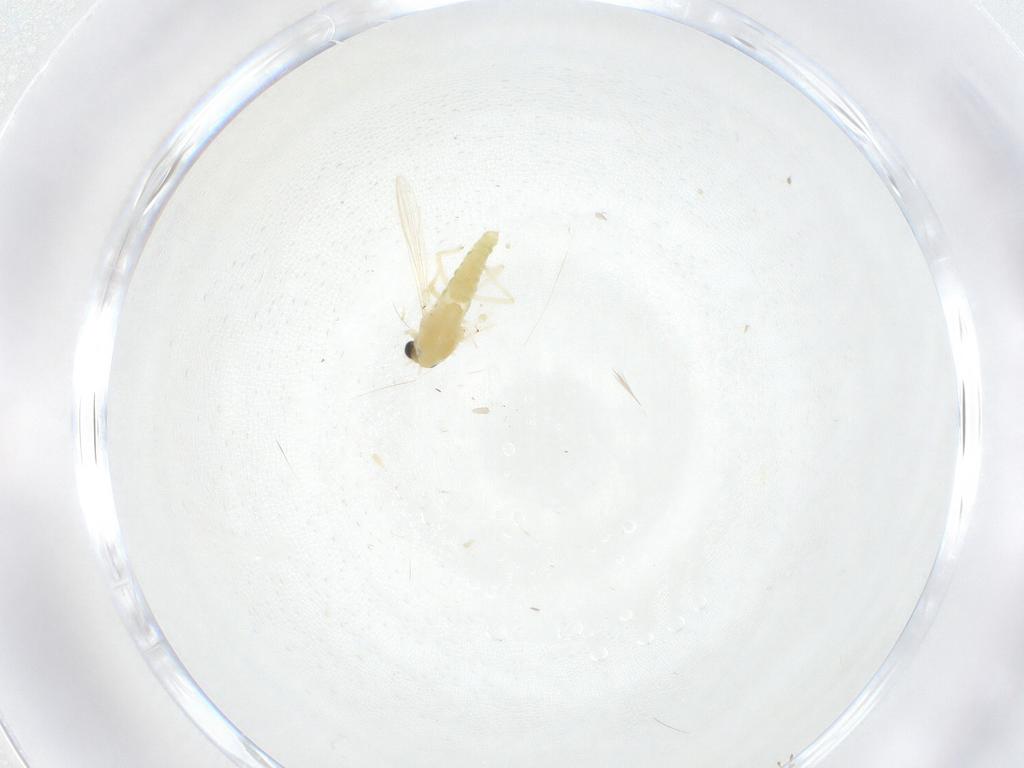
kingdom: Animalia
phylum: Arthropoda
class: Insecta
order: Diptera
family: Chironomidae
